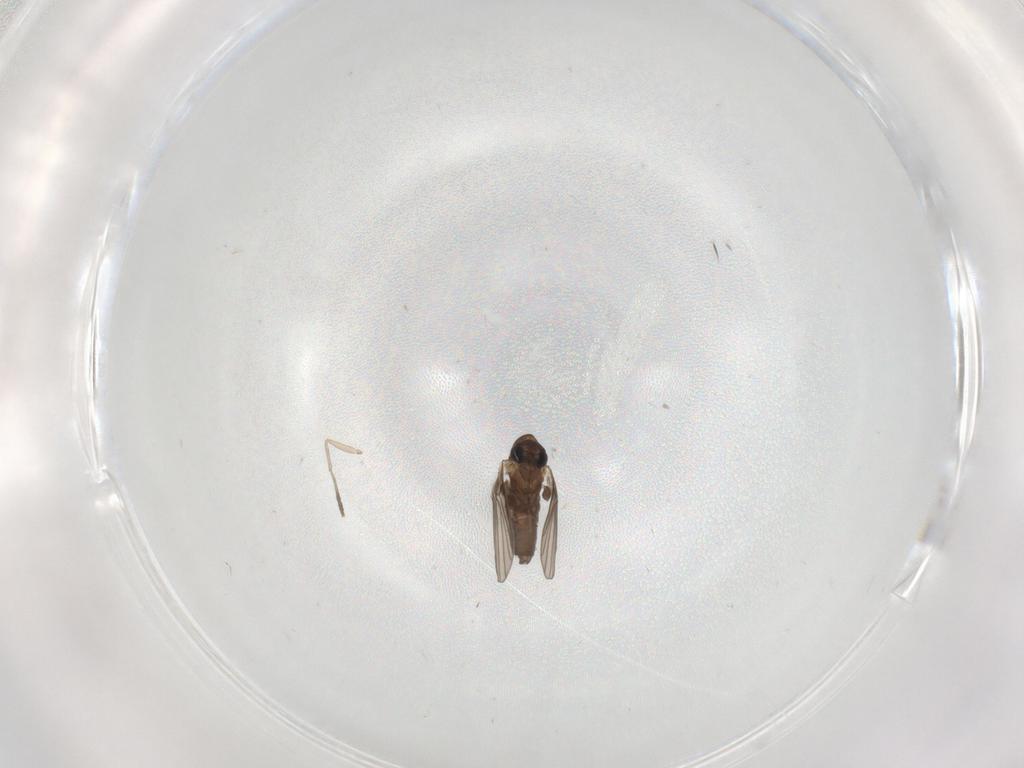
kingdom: Animalia
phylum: Arthropoda
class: Insecta
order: Diptera
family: Cecidomyiidae
